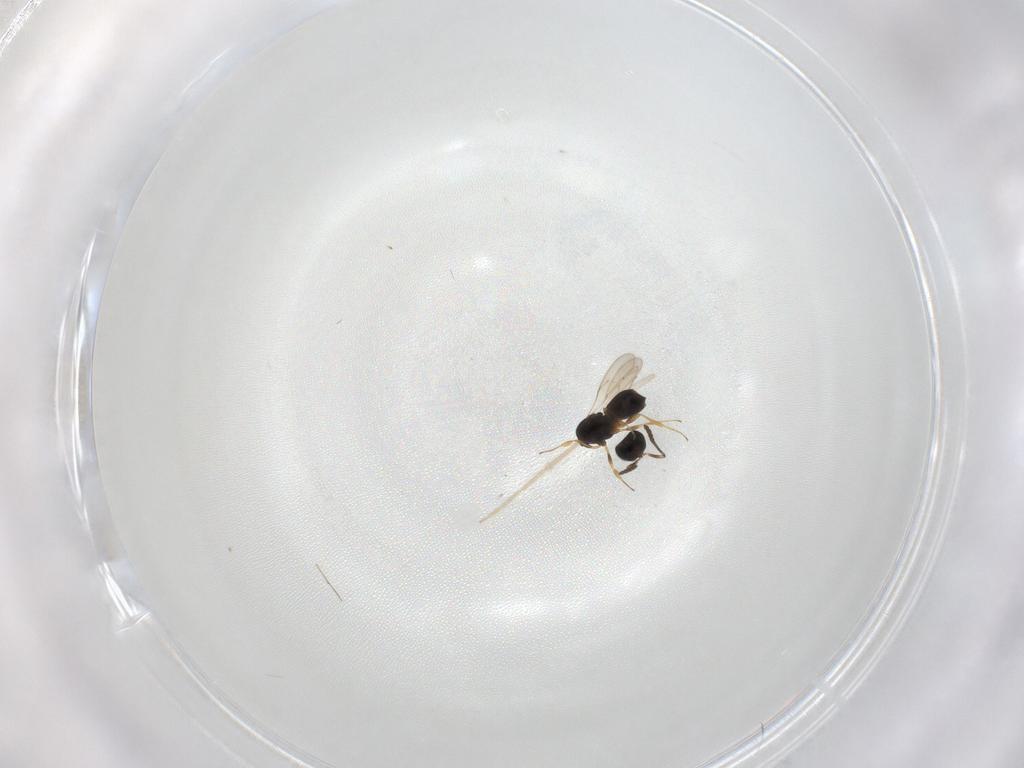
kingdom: Animalia
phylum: Arthropoda
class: Insecta
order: Hymenoptera
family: Scelionidae
